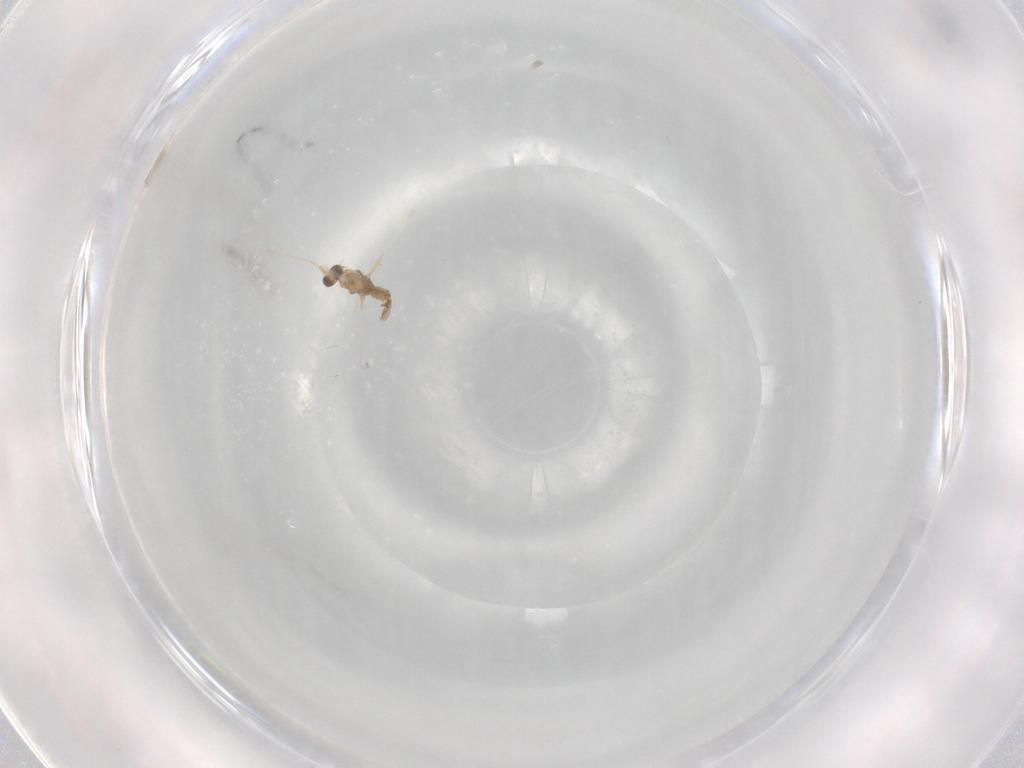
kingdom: Animalia
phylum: Arthropoda
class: Insecta
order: Diptera
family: Cecidomyiidae
